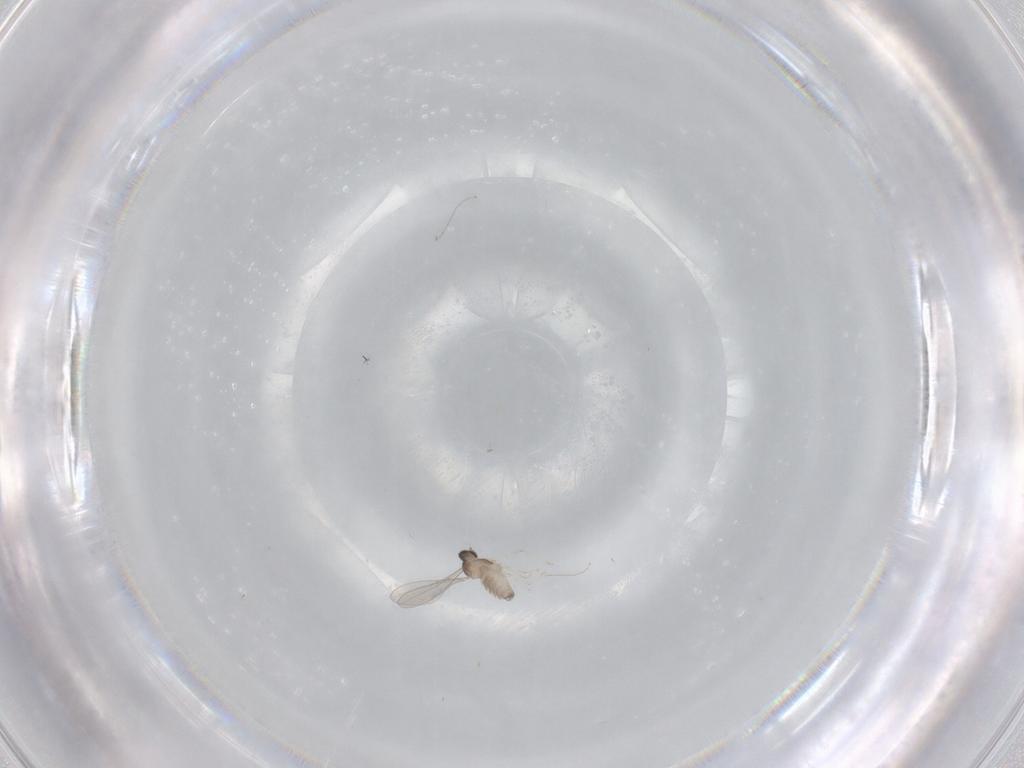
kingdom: Animalia
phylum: Arthropoda
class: Insecta
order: Diptera
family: Cecidomyiidae
